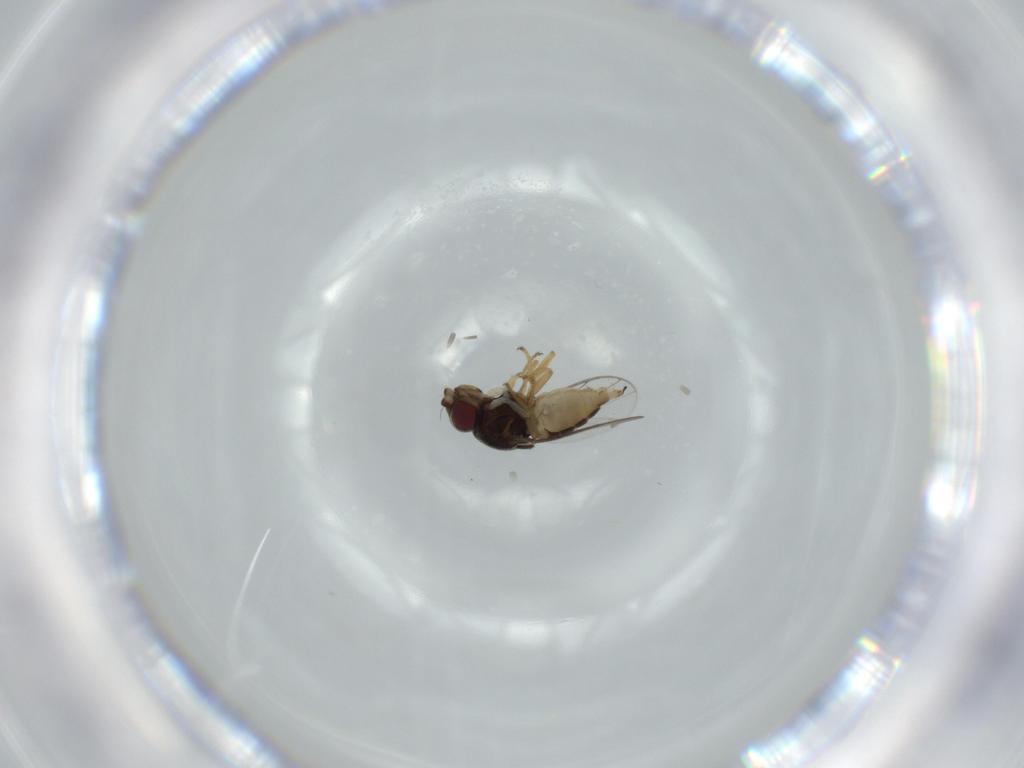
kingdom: Animalia
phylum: Arthropoda
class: Insecta
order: Diptera
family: Chloropidae
